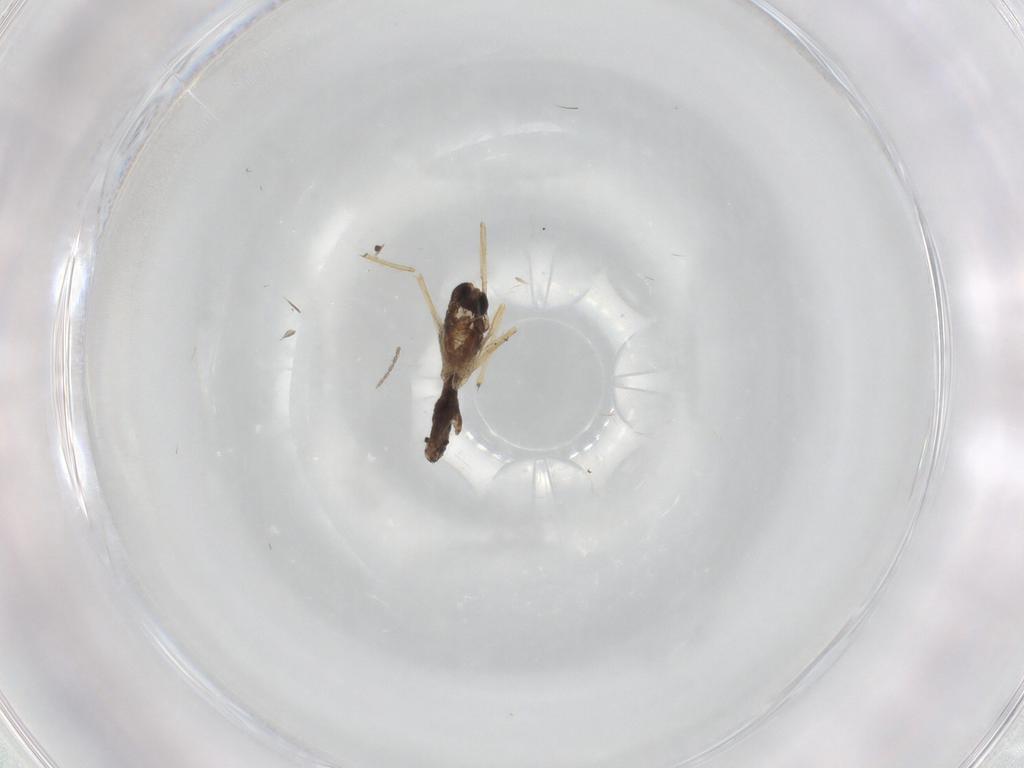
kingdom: Animalia
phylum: Arthropoda
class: Insecta
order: Diptera
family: Chironomidae
